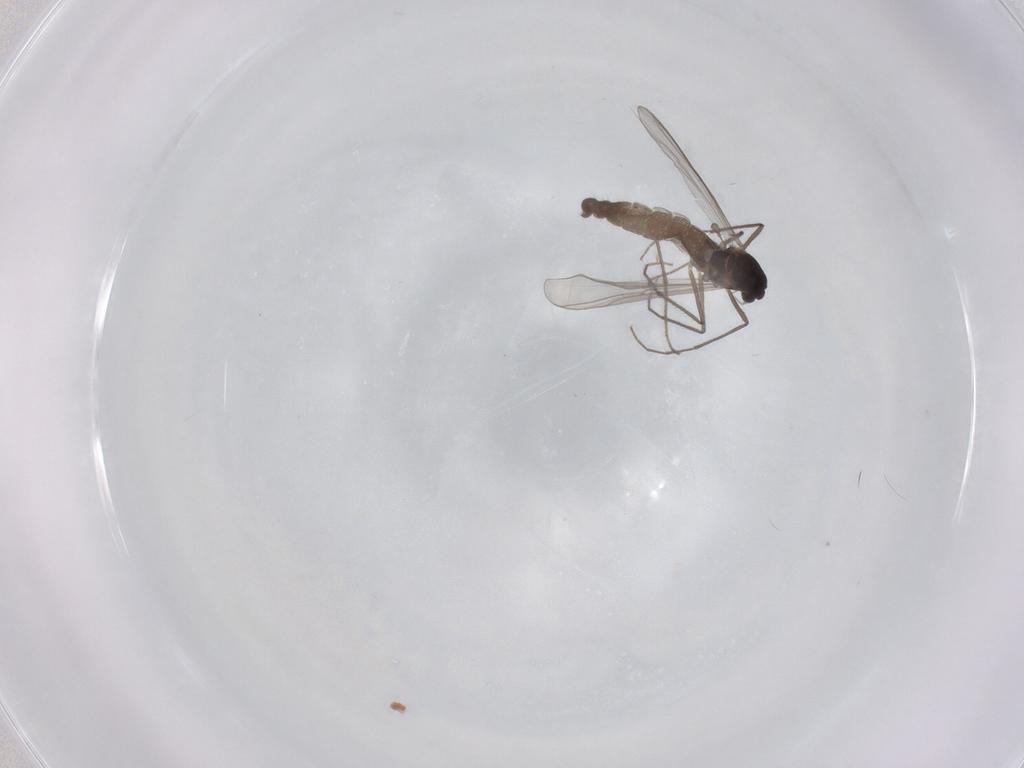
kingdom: Animalia
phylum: Arthropoda
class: Insecta
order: Diptera
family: Chironomidae
